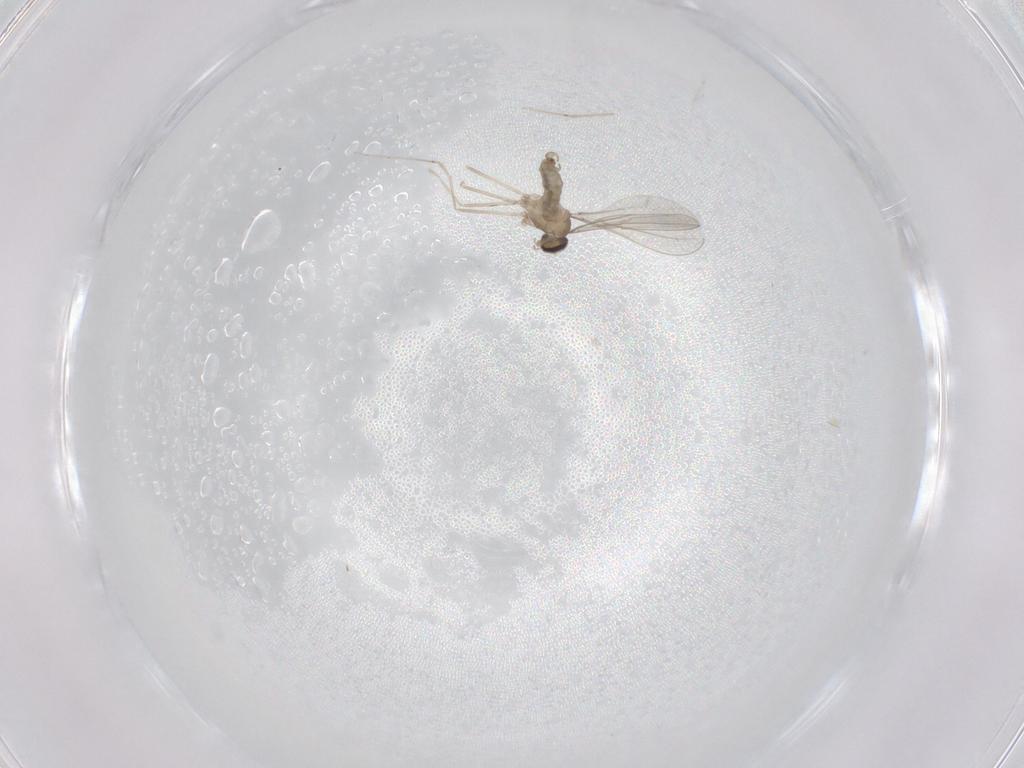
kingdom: Animalia
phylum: Arthropoda
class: Insecta
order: Diptera
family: Cecidomyiidae
